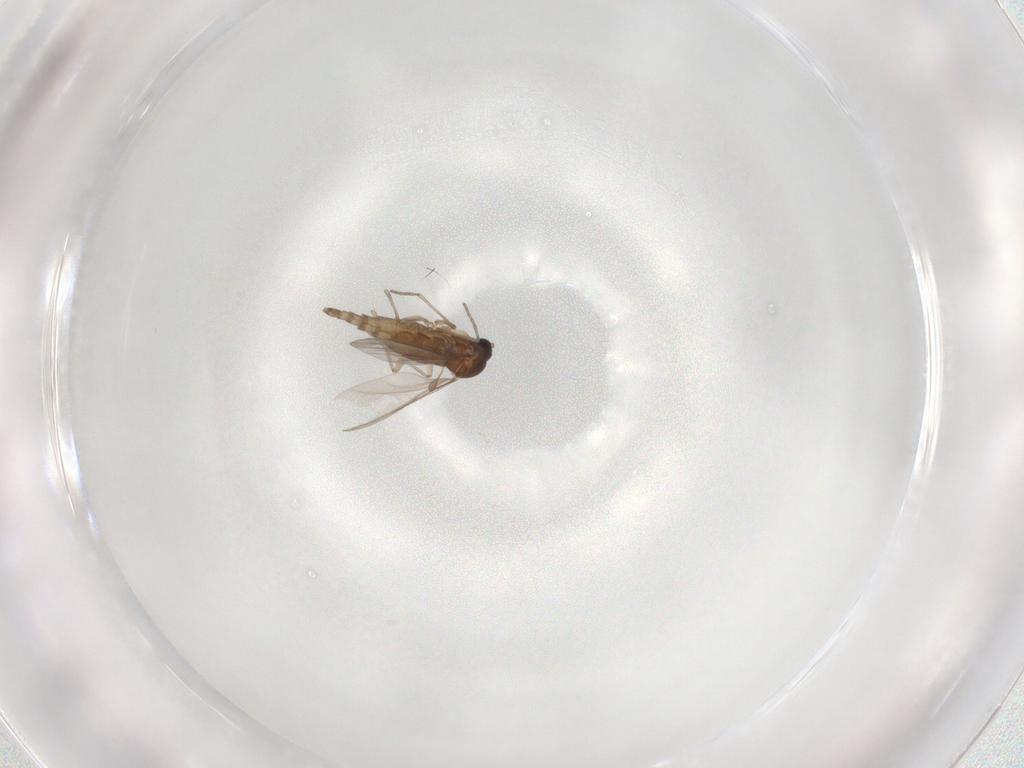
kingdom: Animalia
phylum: Arthropoda
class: Insecta
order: Diptera
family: Sciaridae
